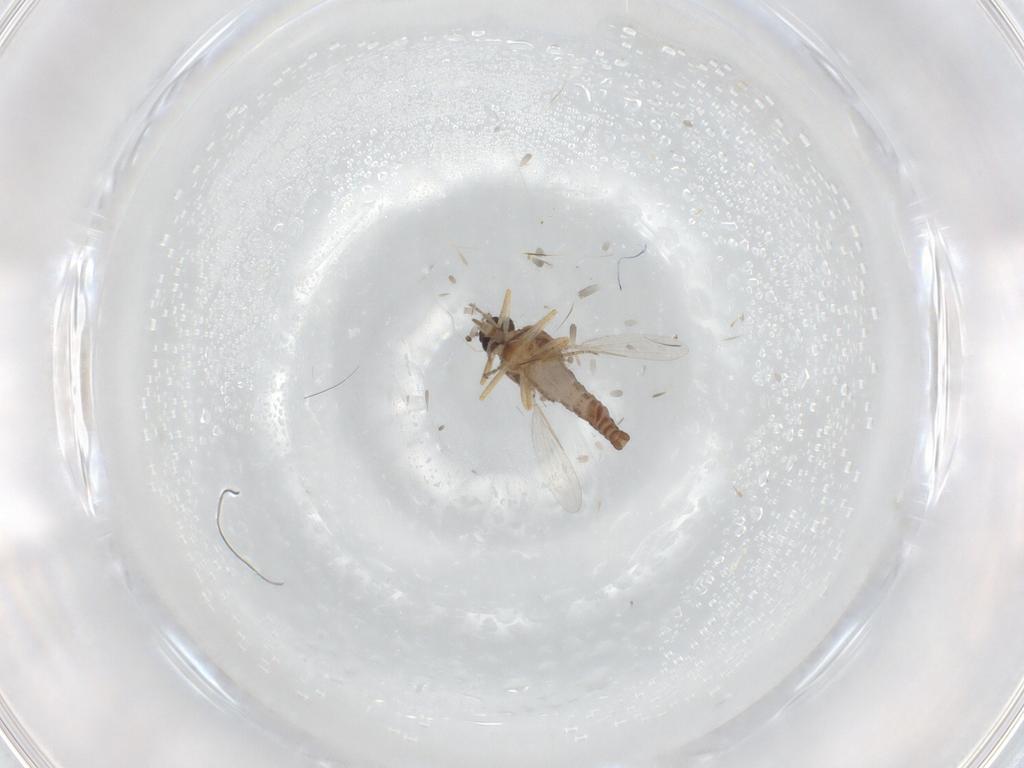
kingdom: Animalia
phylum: Arthropoda
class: Insecta
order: Diptera
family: Ceratopogonidae
